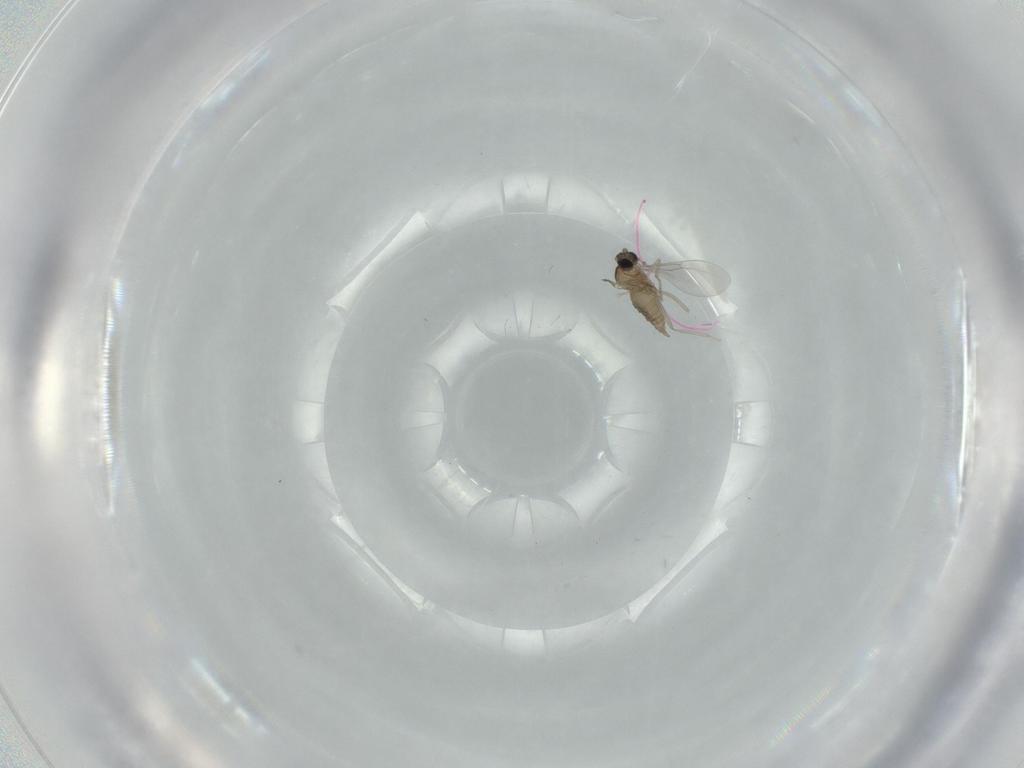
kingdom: Animalia
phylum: Arthropoda
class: Insecta
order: Diptera
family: Cecidomyiidae
